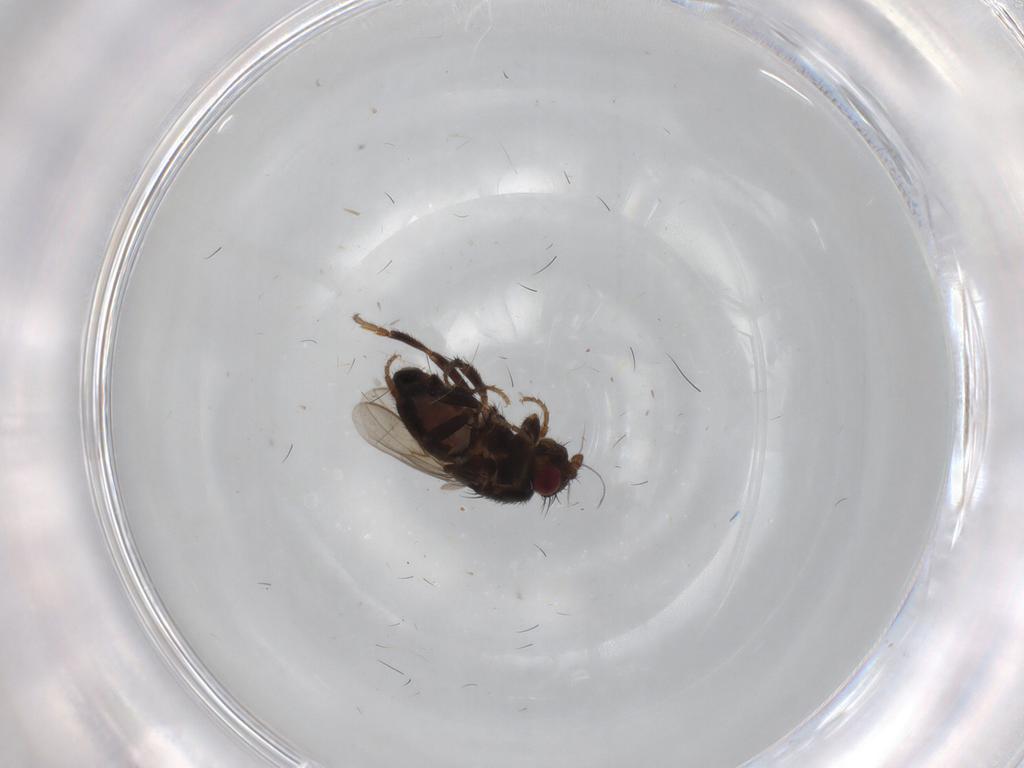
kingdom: Animalia
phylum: Arthropoda
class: Insecta
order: Diptera
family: Sphaeroceridae
